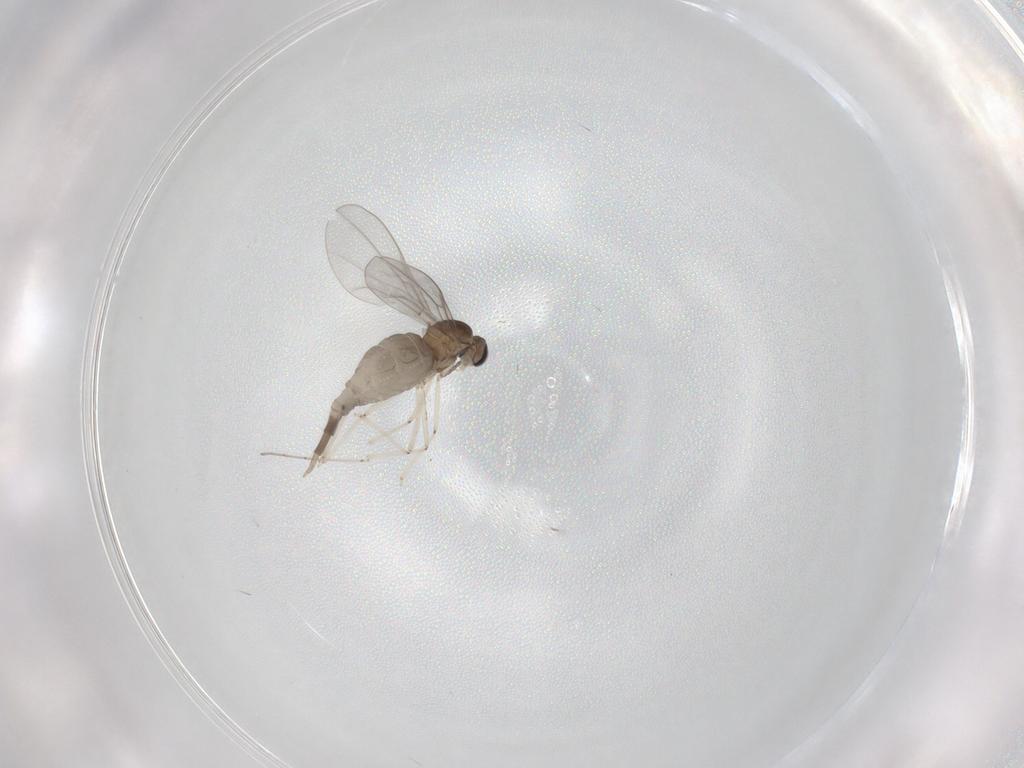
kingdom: Animalia
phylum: Arthropoda
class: Insecta
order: Diptera
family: Cecidomyiidae
